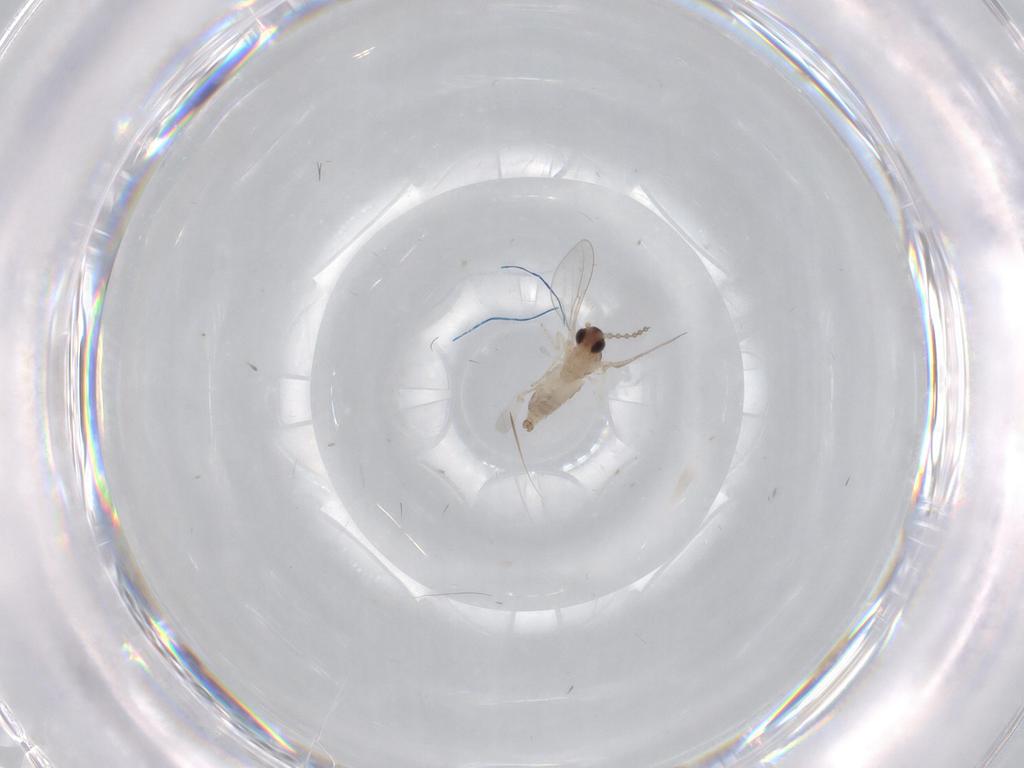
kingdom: Animalia
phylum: Arthropoda
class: Insecta
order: Diptera
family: Cecidomyiidae
